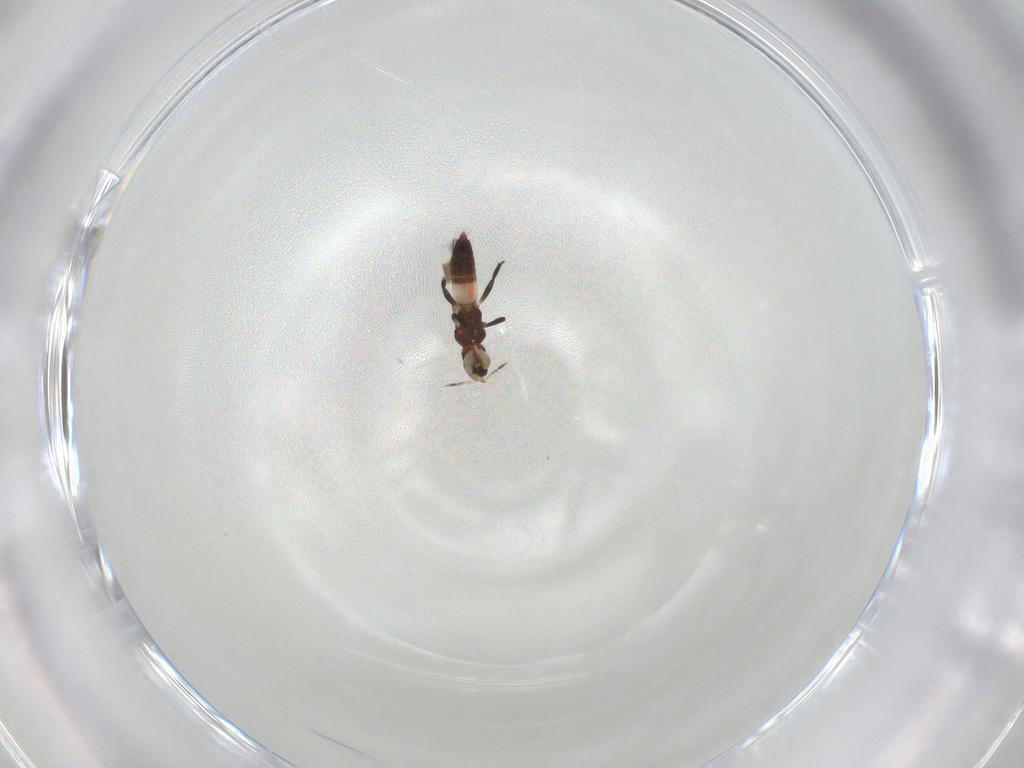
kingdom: Animalia
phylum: Arthropoda
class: Insecta
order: Thysanoptera
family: Aeolothripidae
